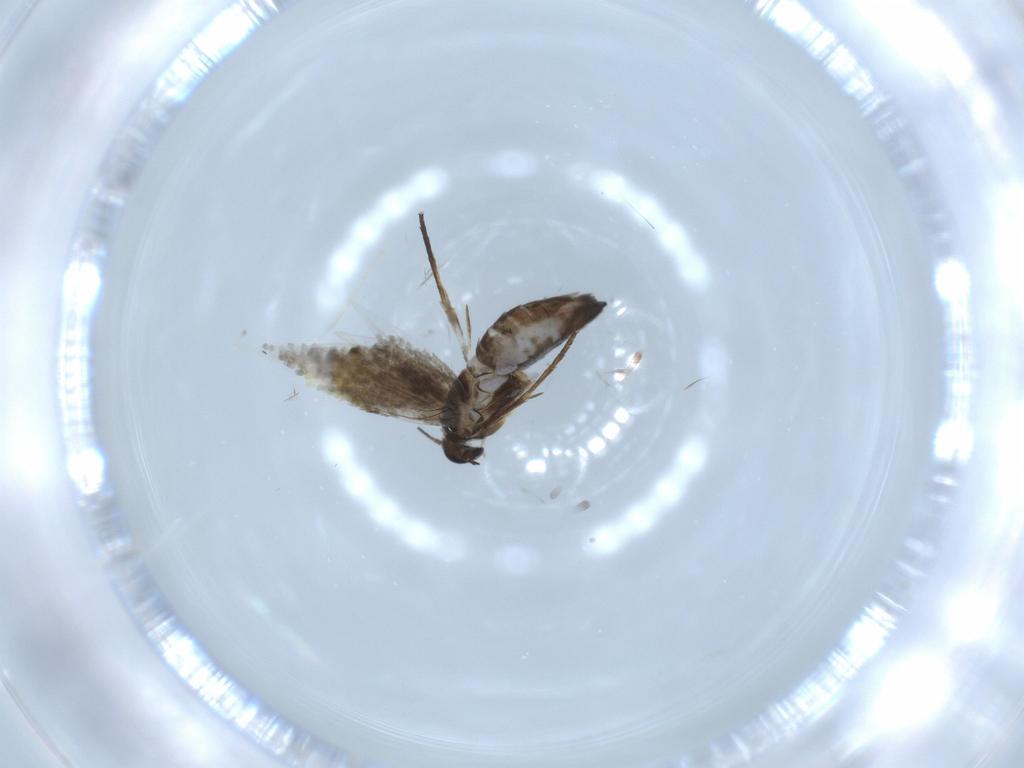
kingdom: Animalia
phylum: Arthropoda
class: Insecta
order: Lepidoptera
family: Heliozelidae
